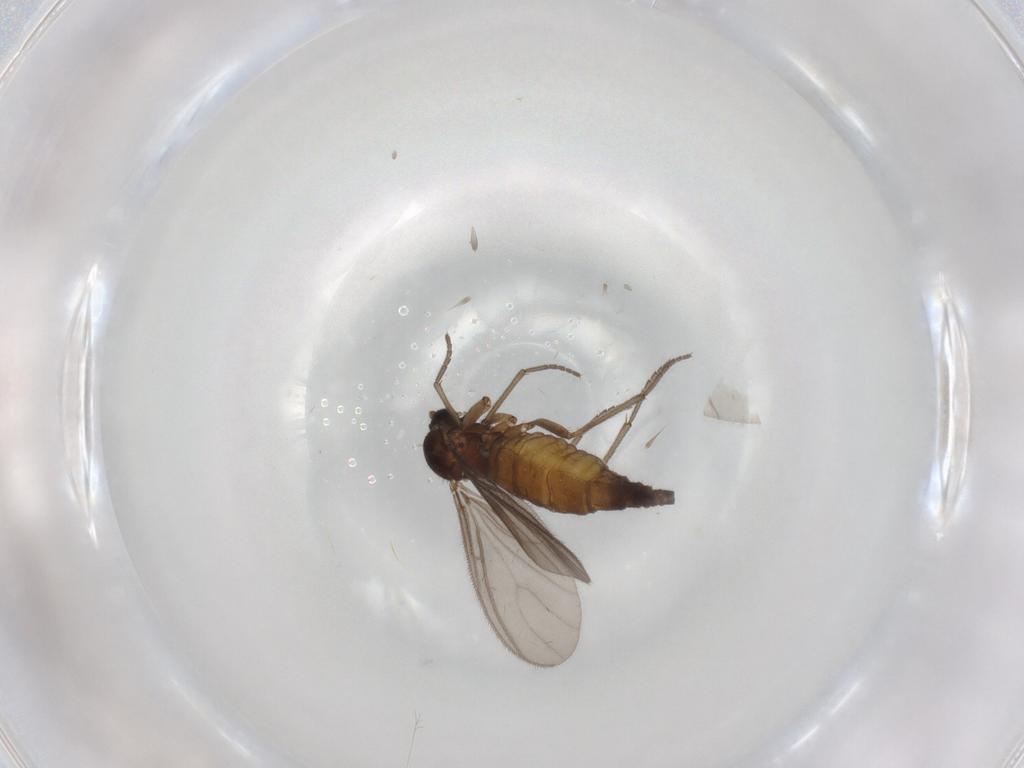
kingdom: Animalia
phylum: Arthropoda
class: Insecta
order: Diptera
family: Sciaridae
